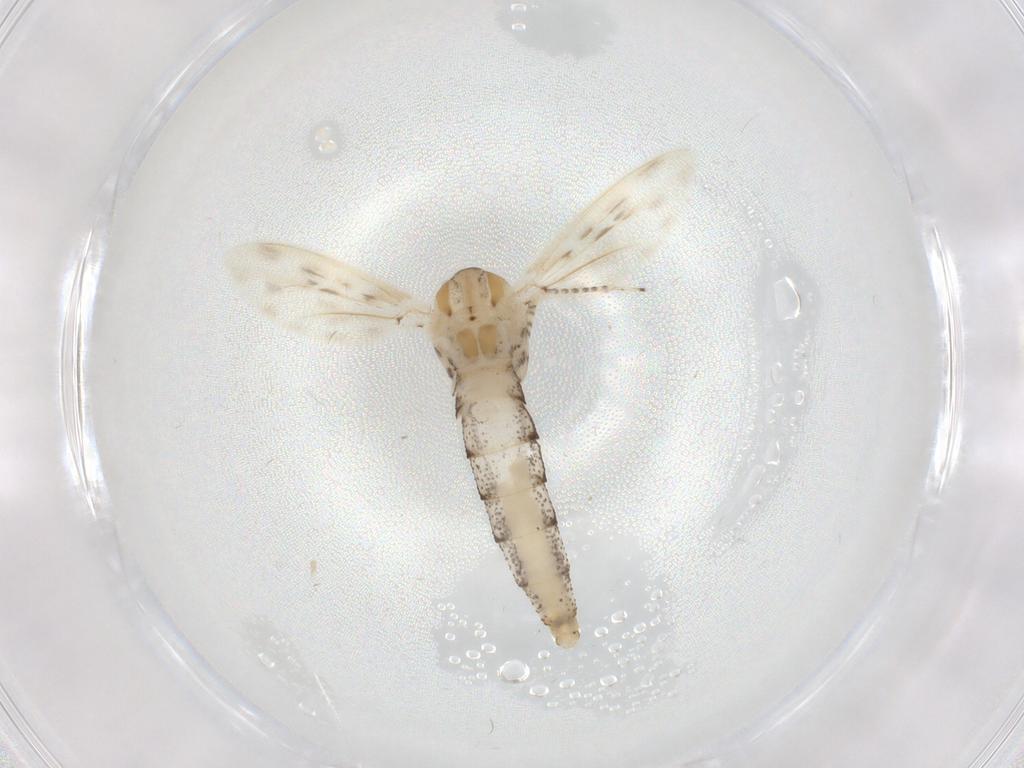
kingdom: Animalia
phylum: Arthropoda
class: Insecta
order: Diptera
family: Chaoboridae
